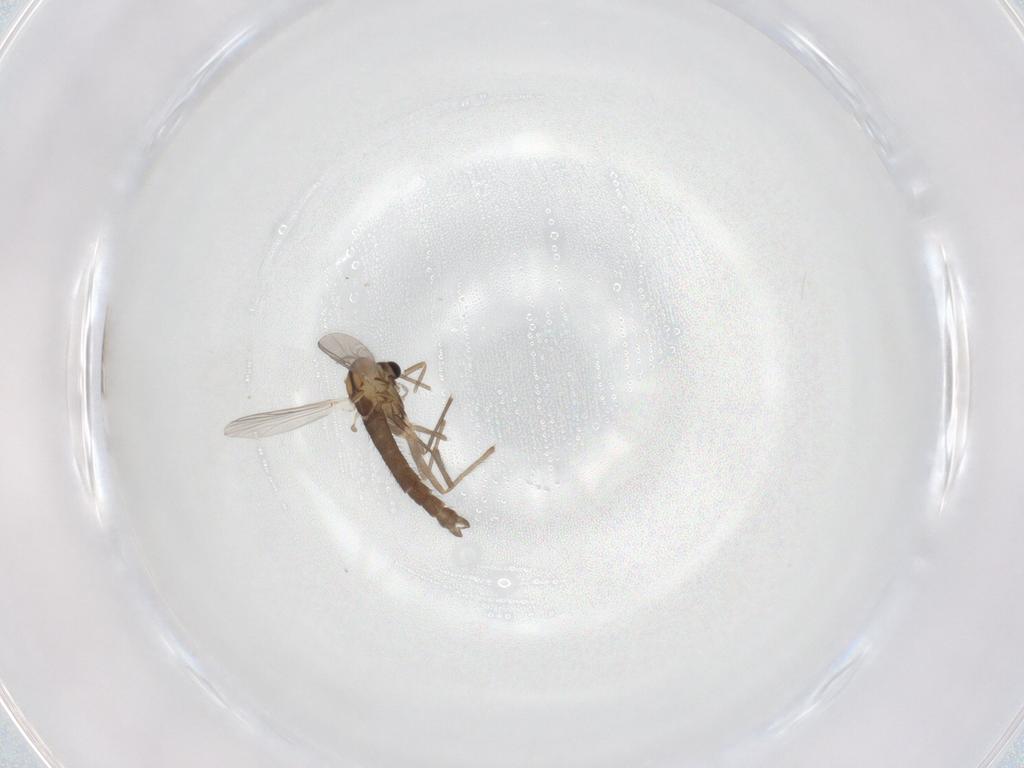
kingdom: Animalia
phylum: Arthropoda
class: Insecta
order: Diptera
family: Chironomidae
